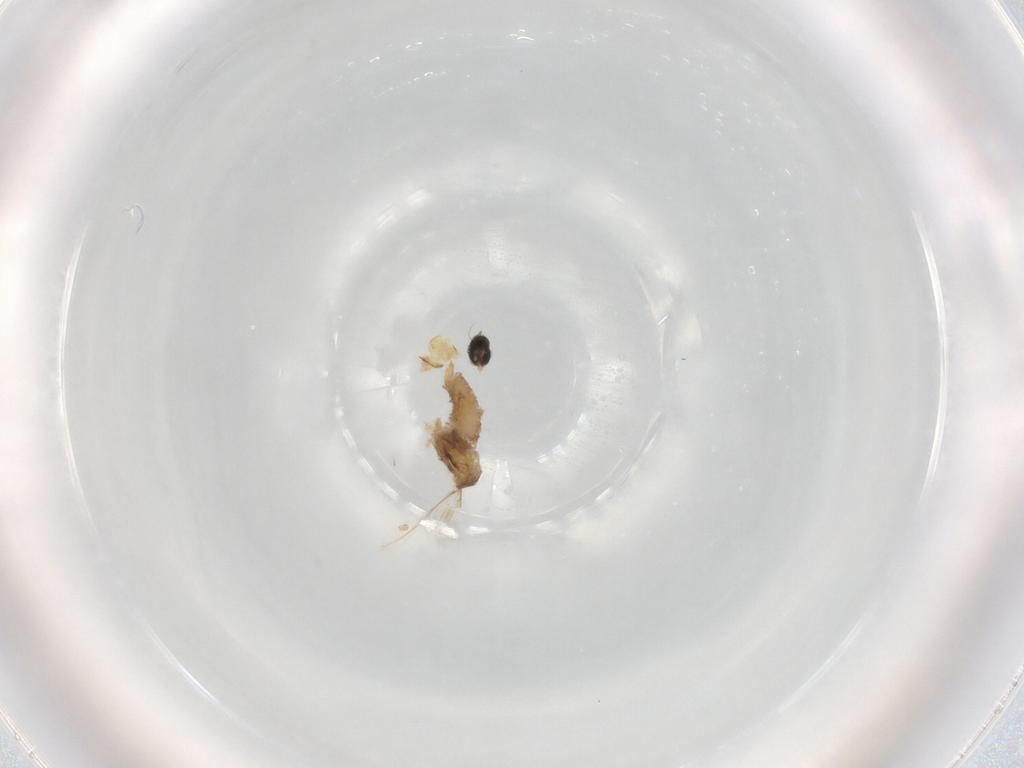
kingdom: Animalia
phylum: Arthropoda
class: Insecta
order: Diptera
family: Glossinidae
